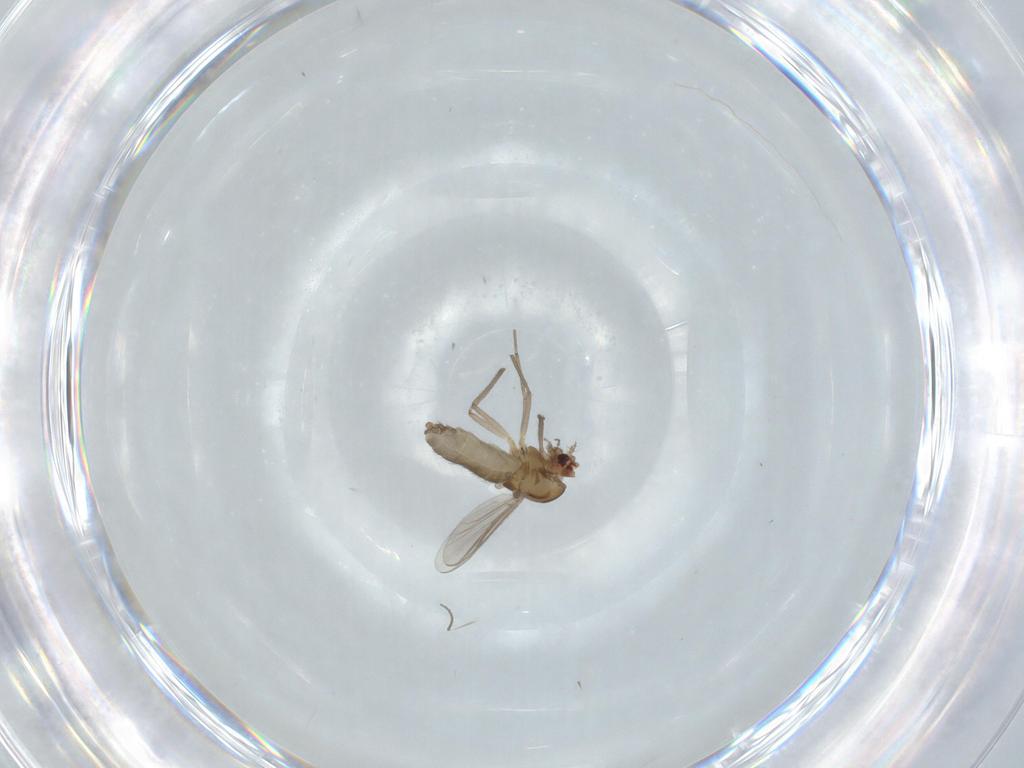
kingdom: Animalia
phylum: Arthropoda
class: Insecta
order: Diptera
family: Chironomidae
